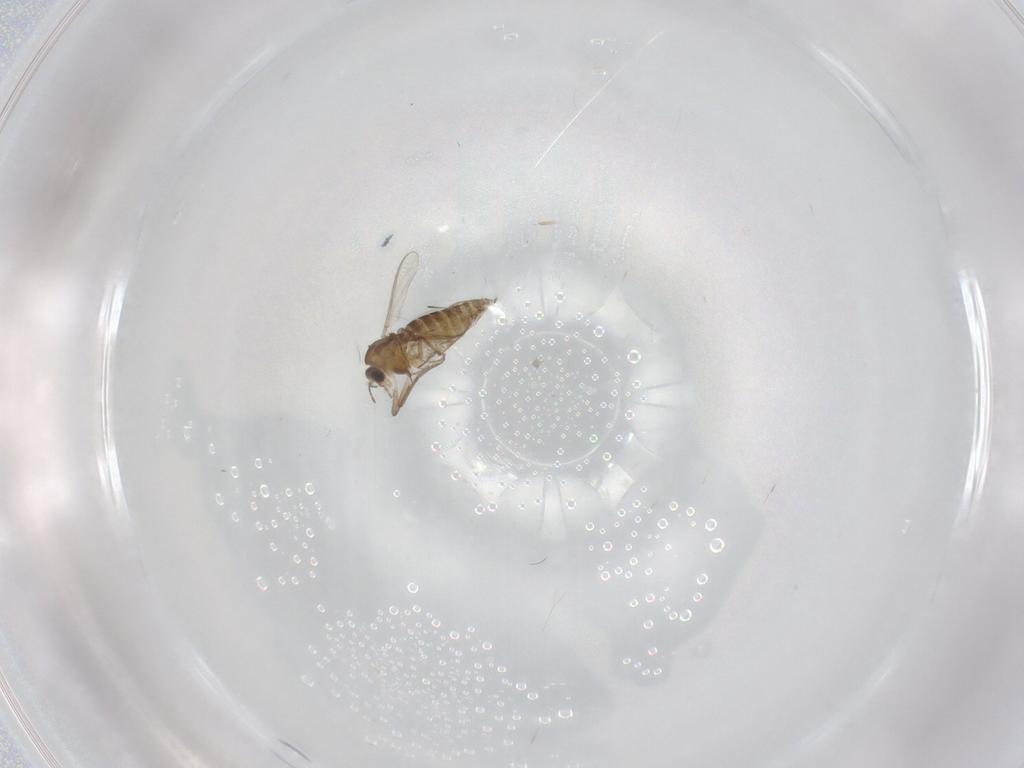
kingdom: Animalia
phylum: Arthropoda
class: Insecta
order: Diptera
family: Chironomidae
